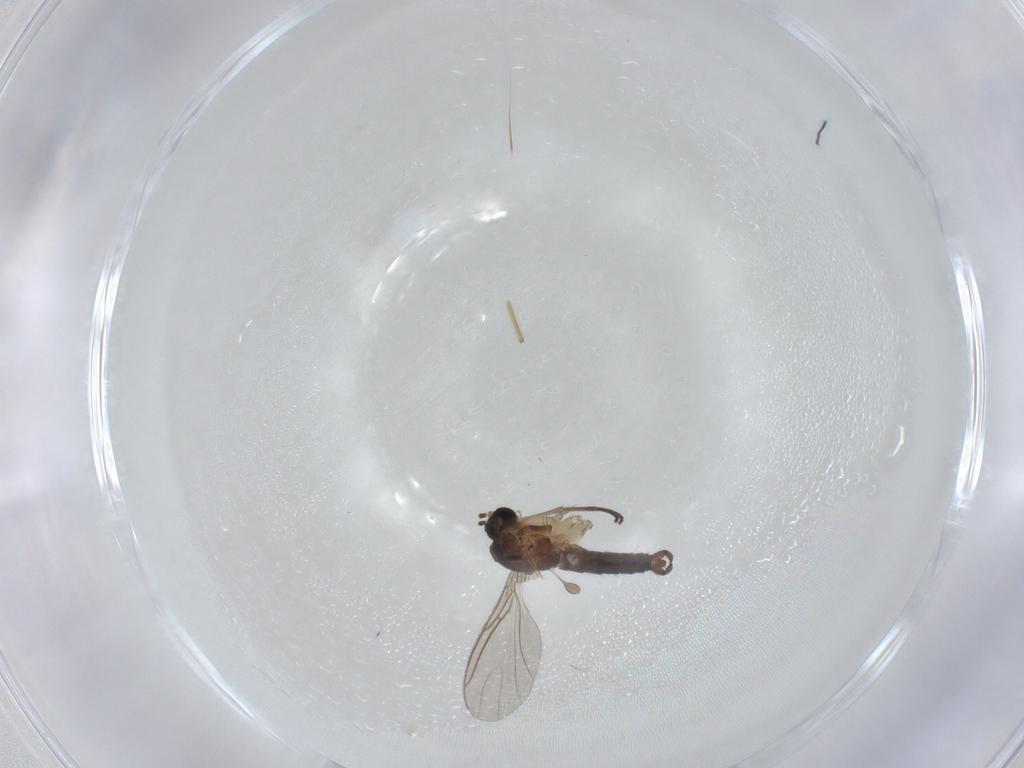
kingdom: Animalia
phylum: Arthropoda
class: Insecta
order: Diptera
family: Sciaridae
